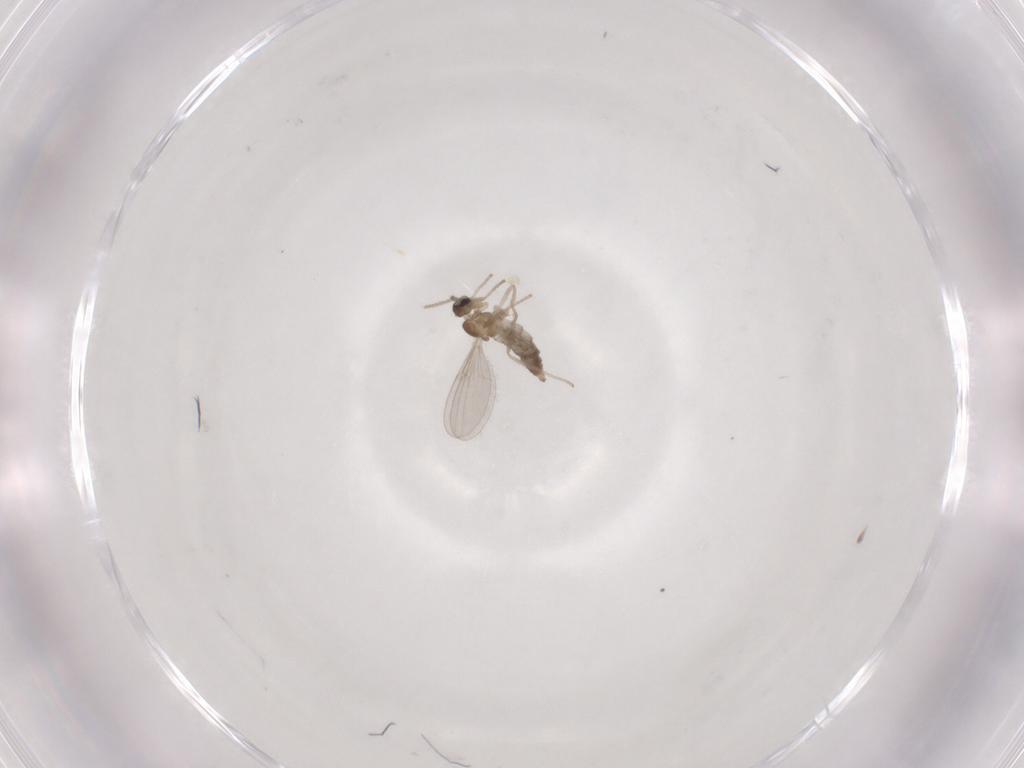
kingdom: Animalia
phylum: Arthropoda
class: Insecta
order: Diptera
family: Cecidomyiidae
